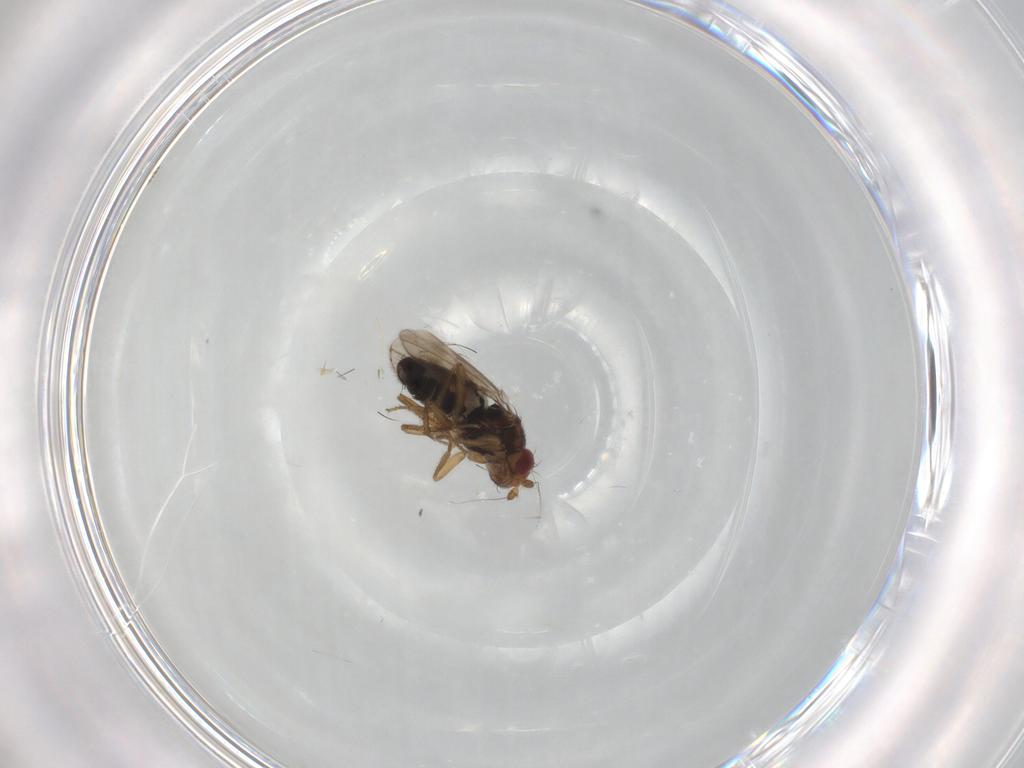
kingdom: Animalia
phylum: Arthropoda
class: Insecta
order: Diptera
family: Sphaeroceridae
